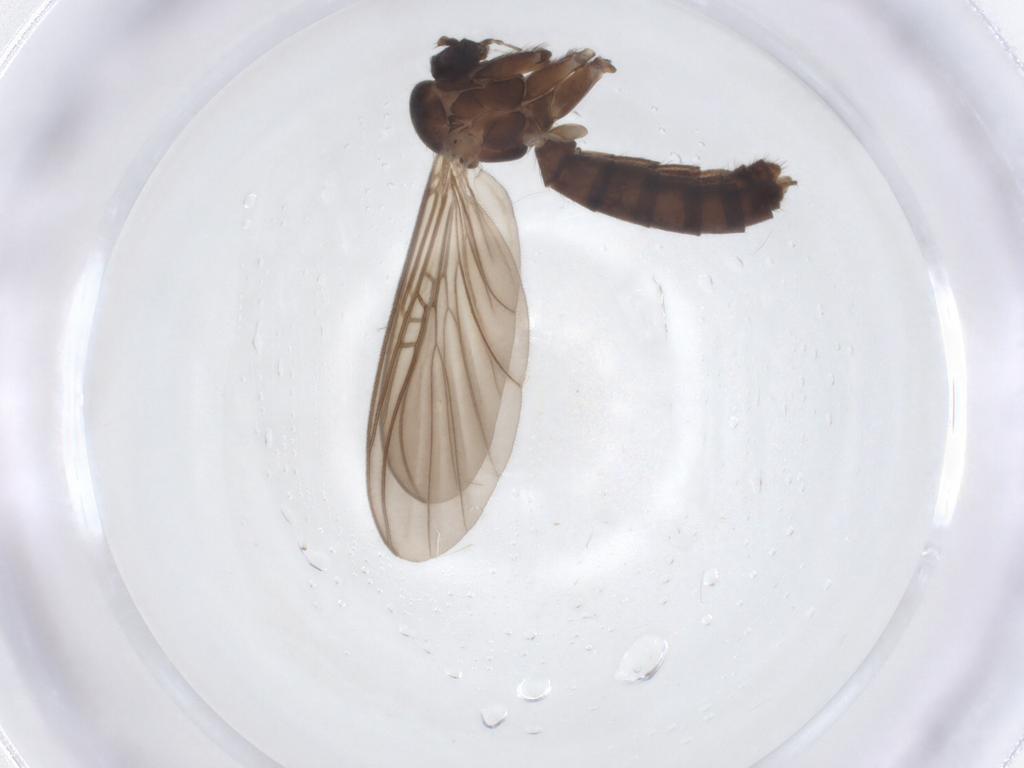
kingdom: Animalia
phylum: Arthropoda
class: Insecta
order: Diptera
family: Mycetophilidae
